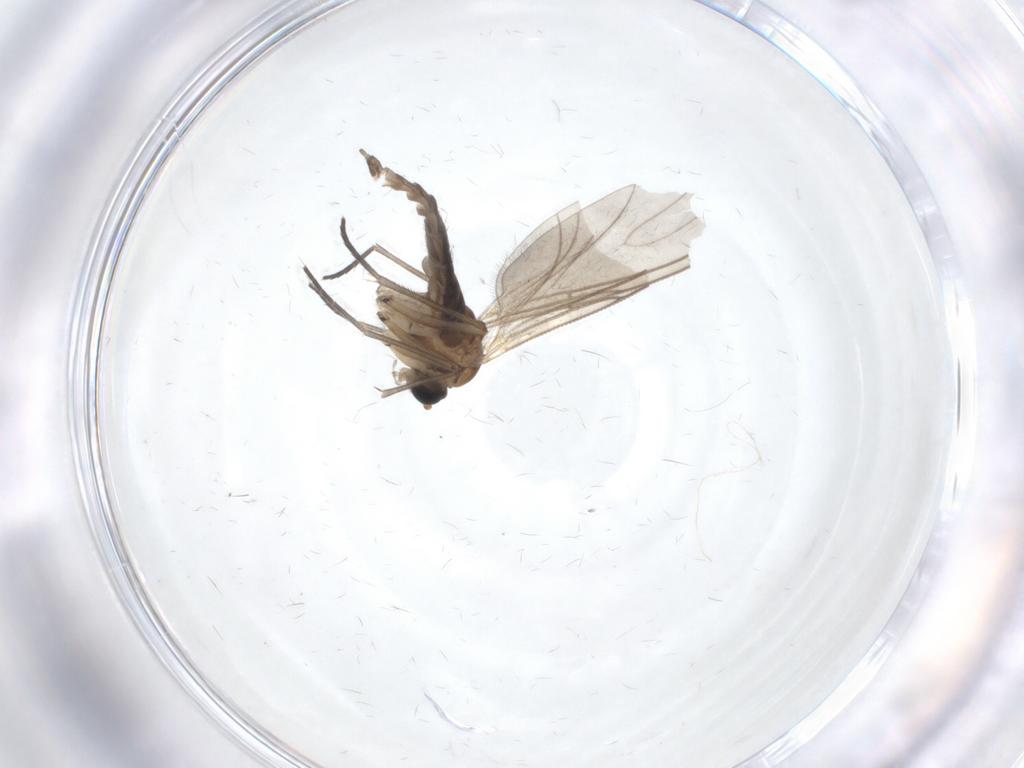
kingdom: Animalia
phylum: Arthropoda
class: Insecta
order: Diptera
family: Sciaridae
